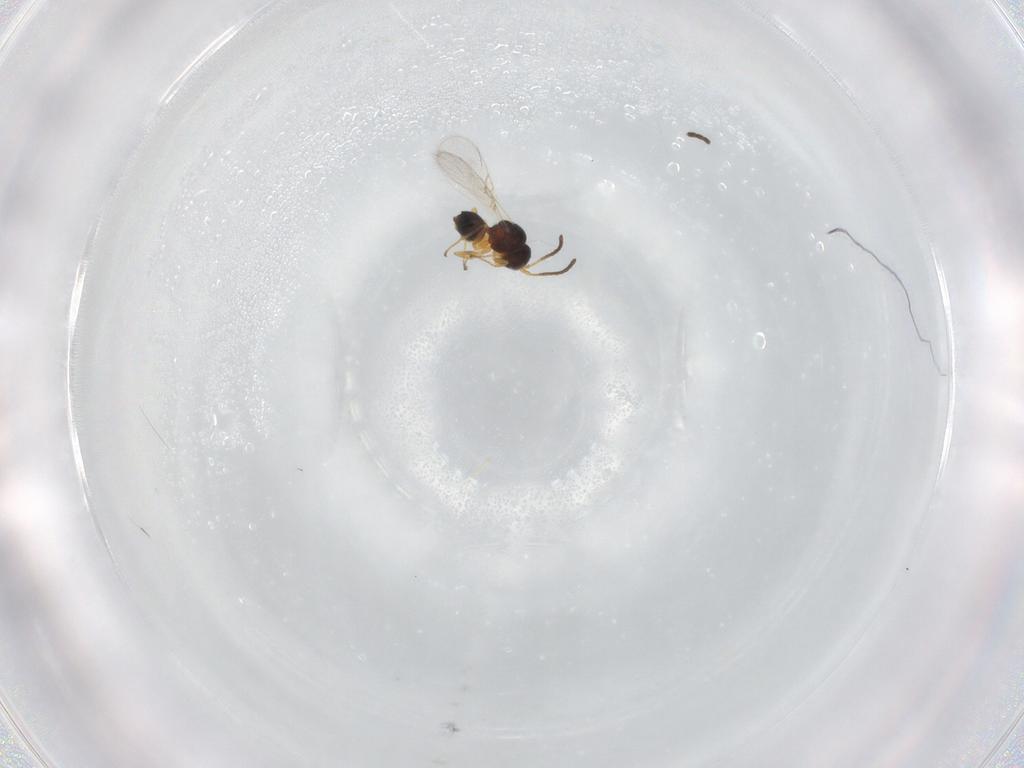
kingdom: Animalia
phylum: Arthropoda
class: Insecta
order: Hymenoptera
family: Figitidae
